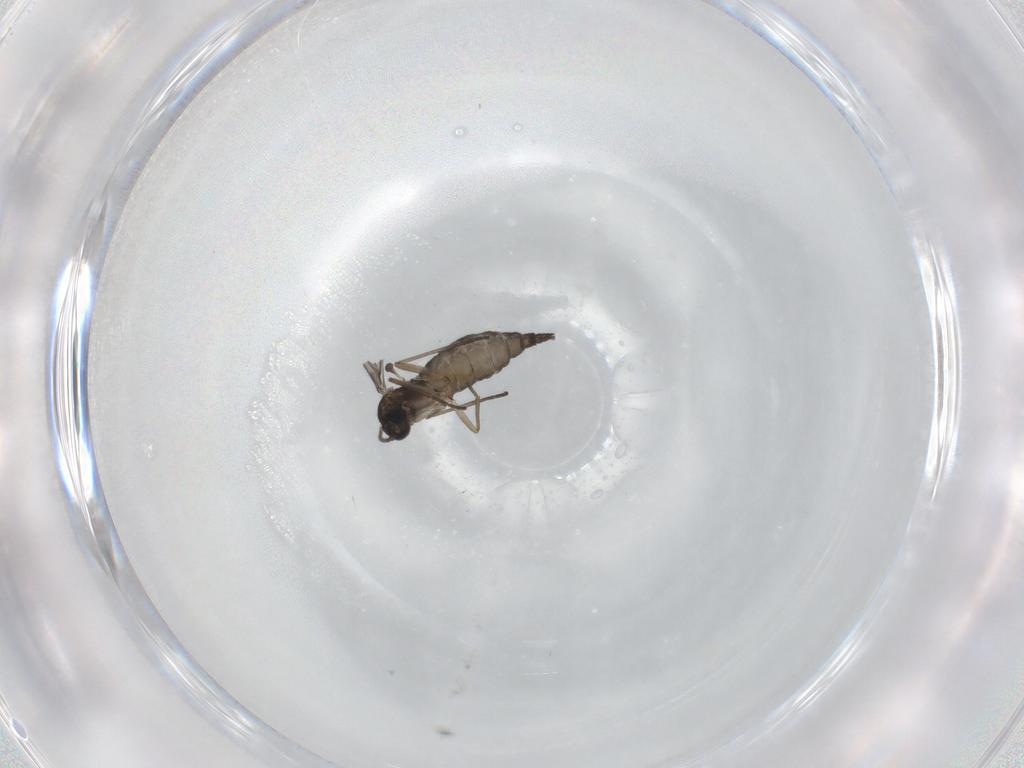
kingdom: Animalia
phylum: Arthropoda
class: Insecta
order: Diptera
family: Sciaridae
